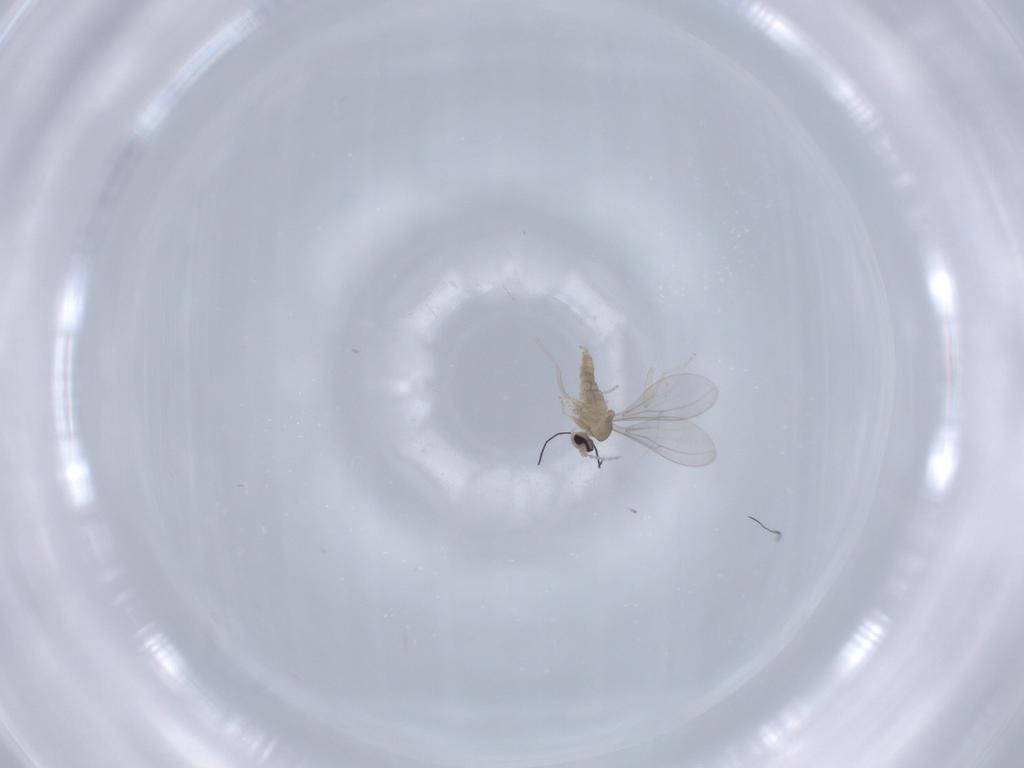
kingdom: Animalia
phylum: Arthropoda
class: Insecta
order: Diptera
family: Cecidomyiidae
